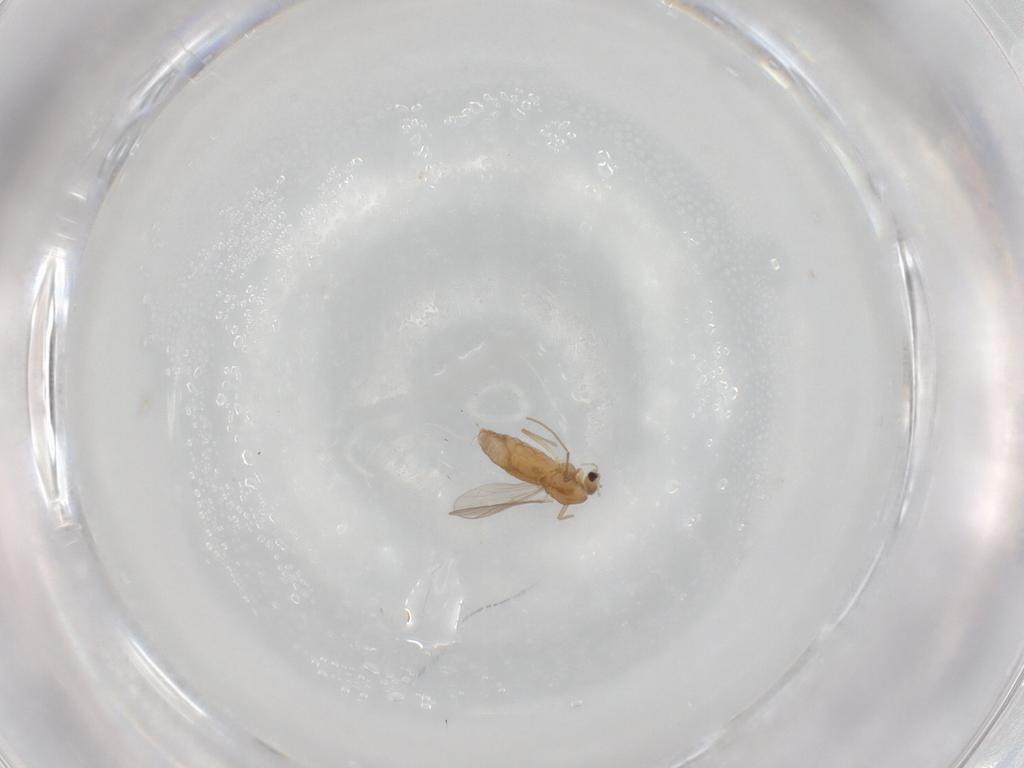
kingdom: Animalia
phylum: Arthropoda
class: Insecta
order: Diptera
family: Chironomidae
